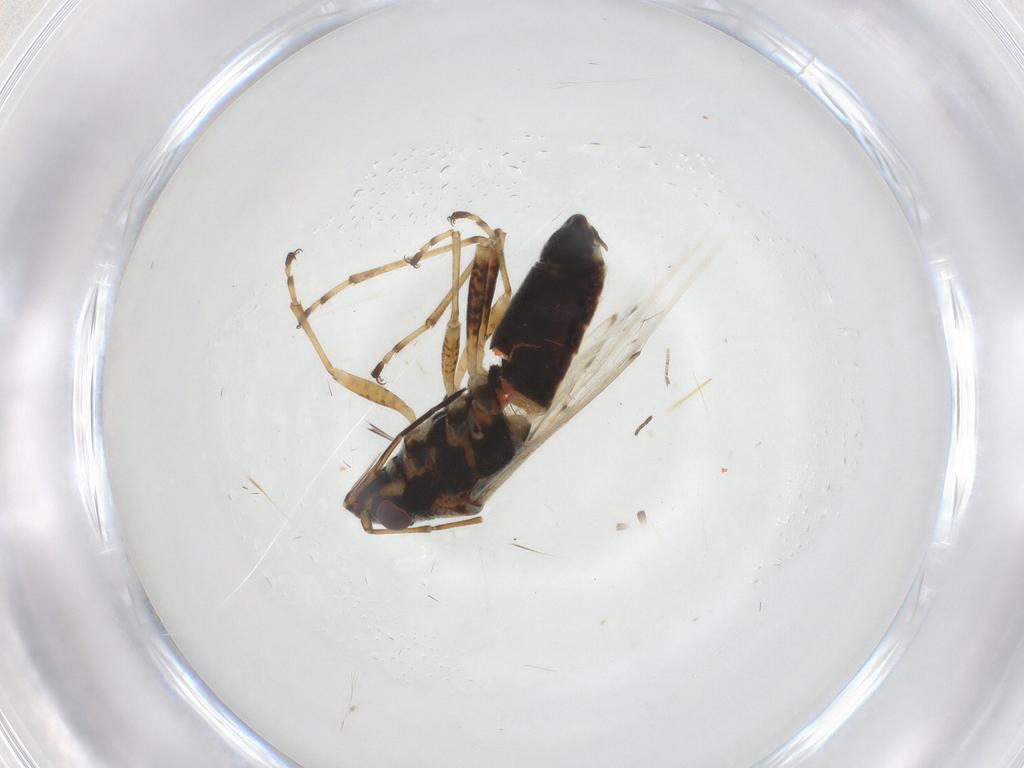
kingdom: Animalia
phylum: Arthropoda
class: Insecta
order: Hemiptera
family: Lygaeidae
